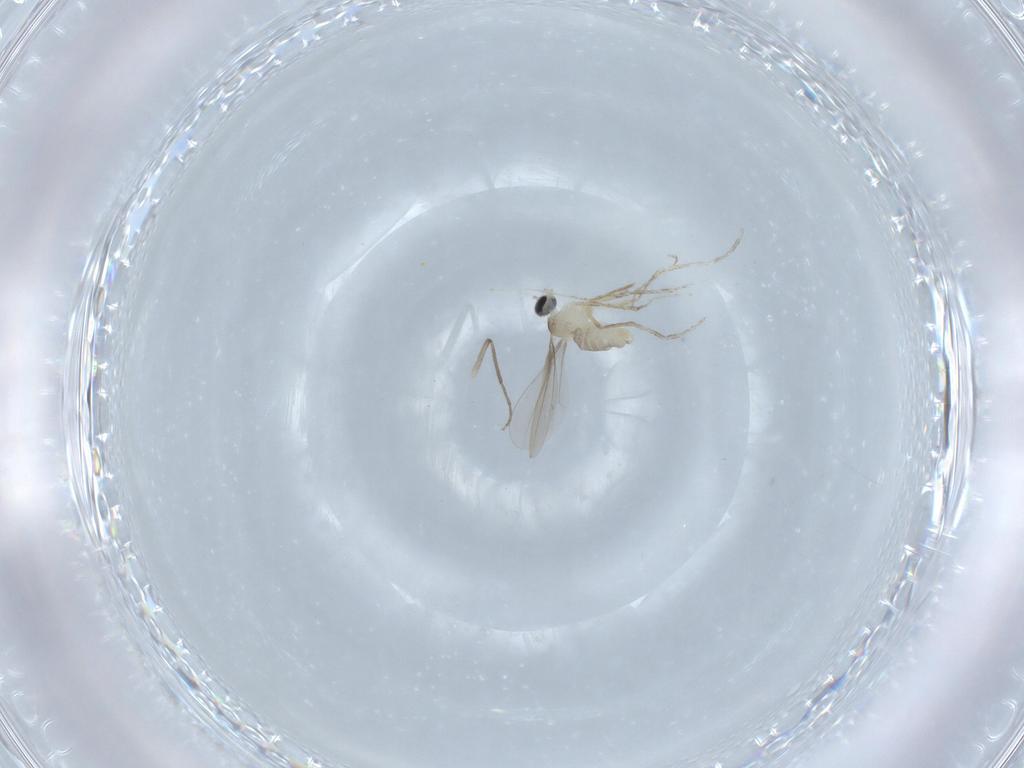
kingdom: Animalia
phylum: Arthropoda
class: Insecta
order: Diptera
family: Cecidomyiidae
